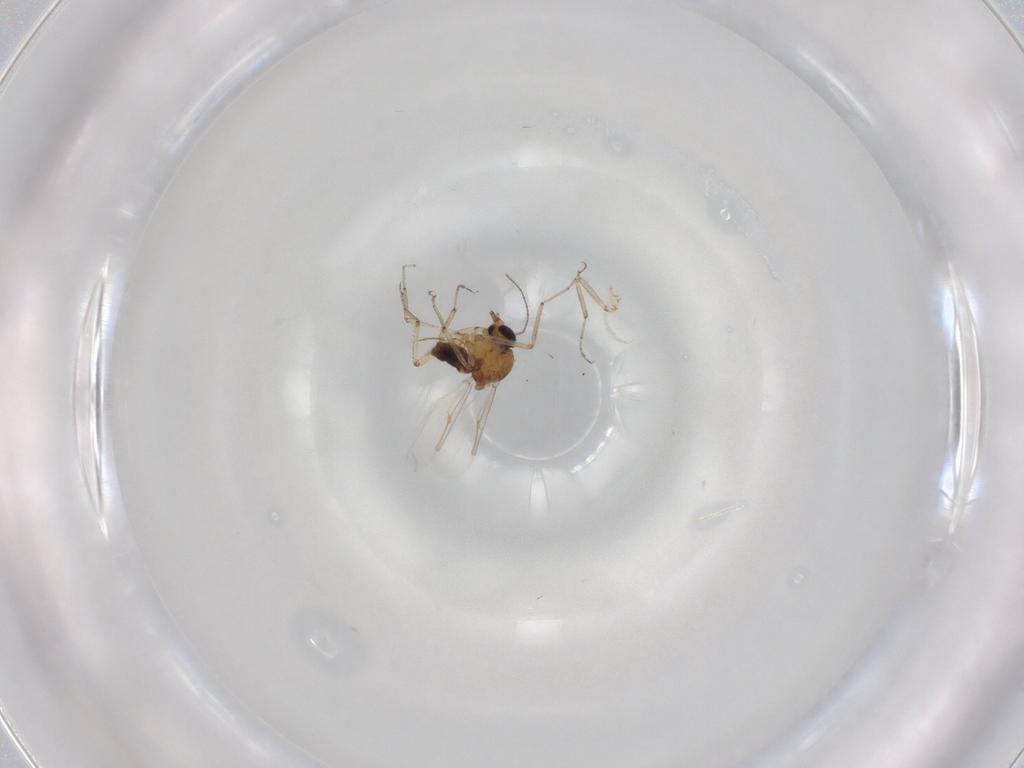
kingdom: Animalia
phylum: Arthropoda
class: Insecta
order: Diptera
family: Ceratopogonidae
